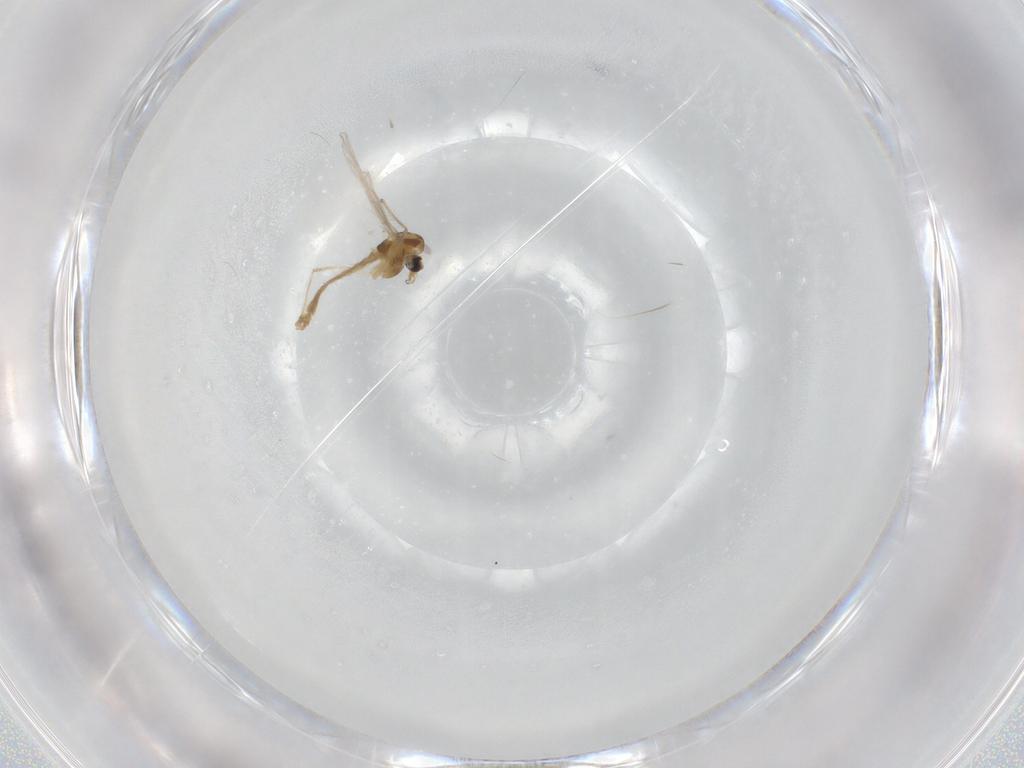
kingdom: Animalia
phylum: Arthropoda
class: Insecta
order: Diptera
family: Chironomidae
